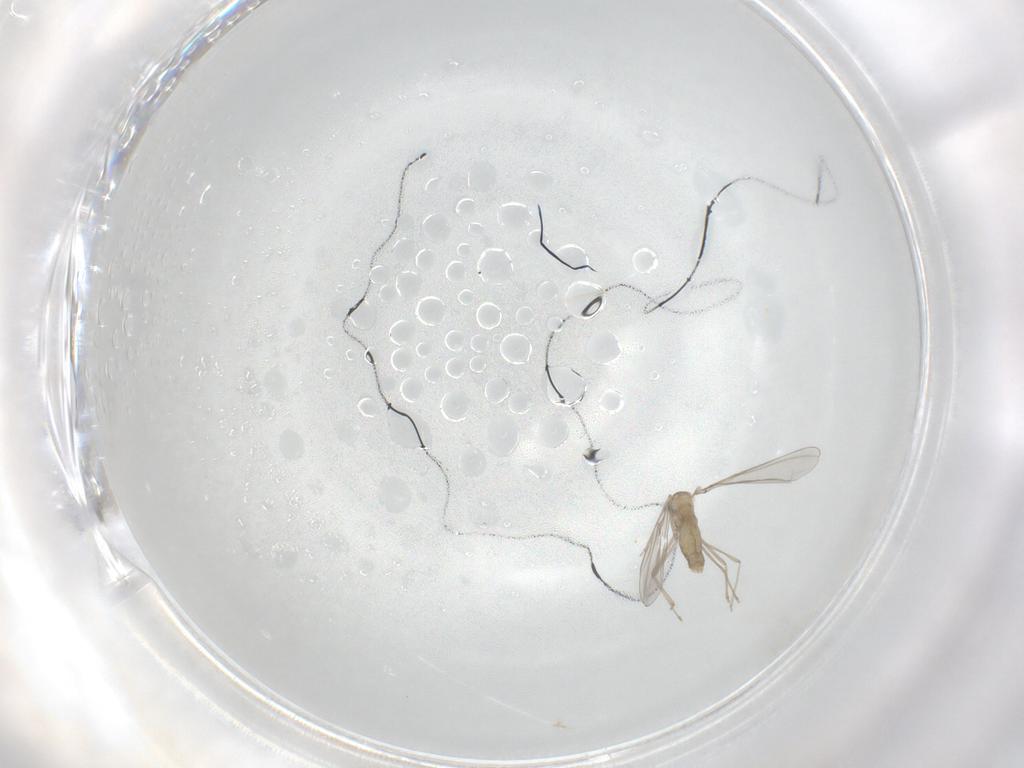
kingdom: Animalia
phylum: Arthropoda
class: Insecta
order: Diptera
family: Cecidomyiidae
